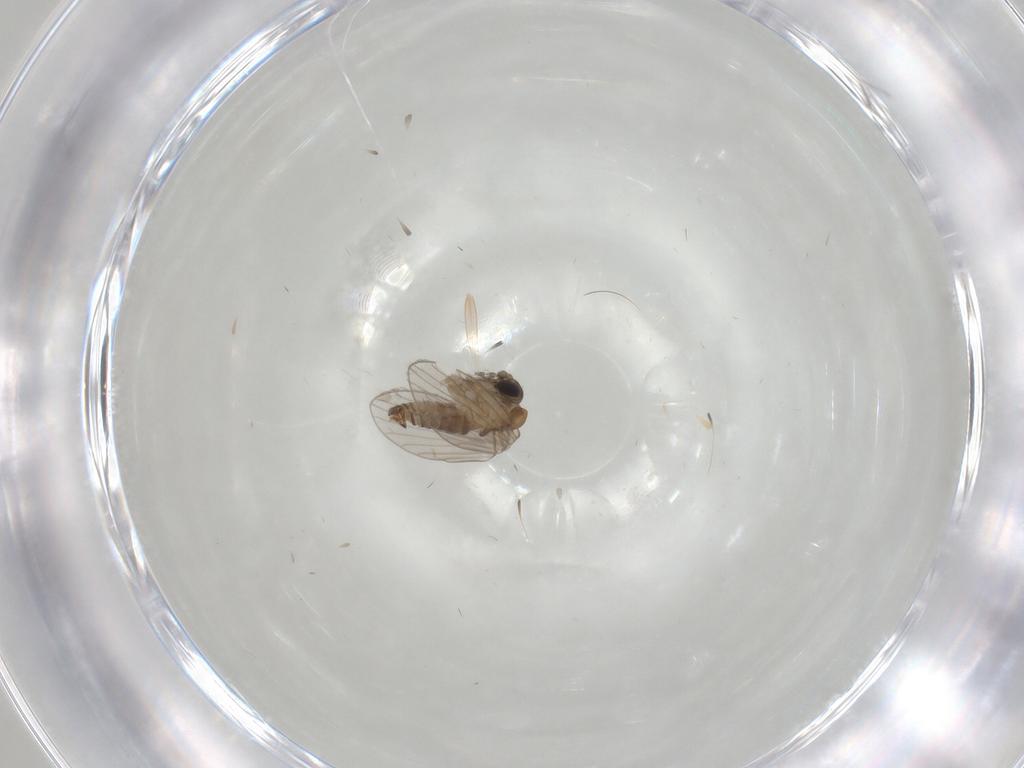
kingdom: Animalia
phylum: Arthropoda
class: Insecta
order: Diptera
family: Psychodidae
